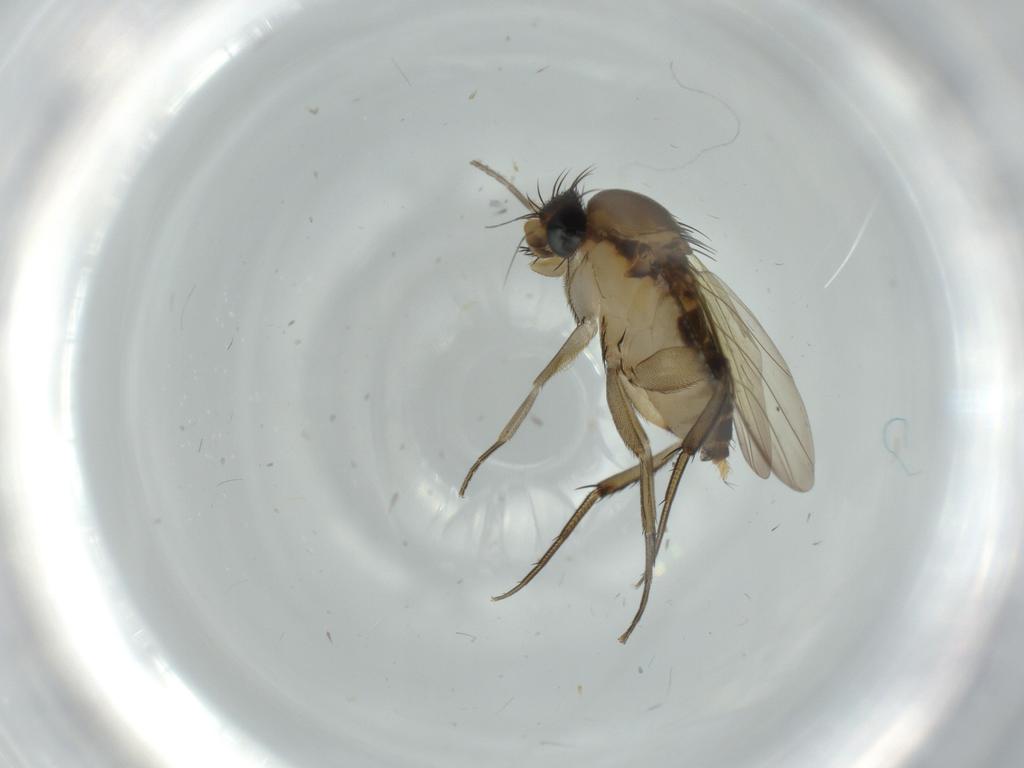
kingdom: Animalia
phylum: Arthropoda
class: Insecta
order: Diptera
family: Phoridae
